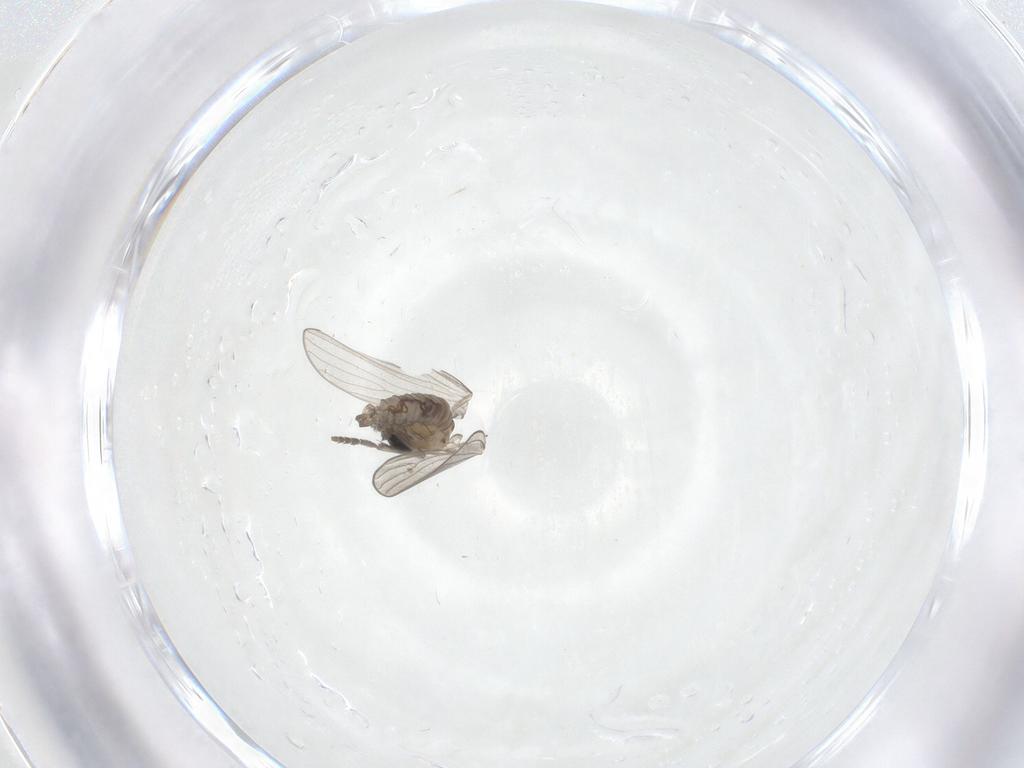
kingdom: Animalia
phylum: Arthropoda
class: Insecta
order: Diptera
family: Psychodidae
